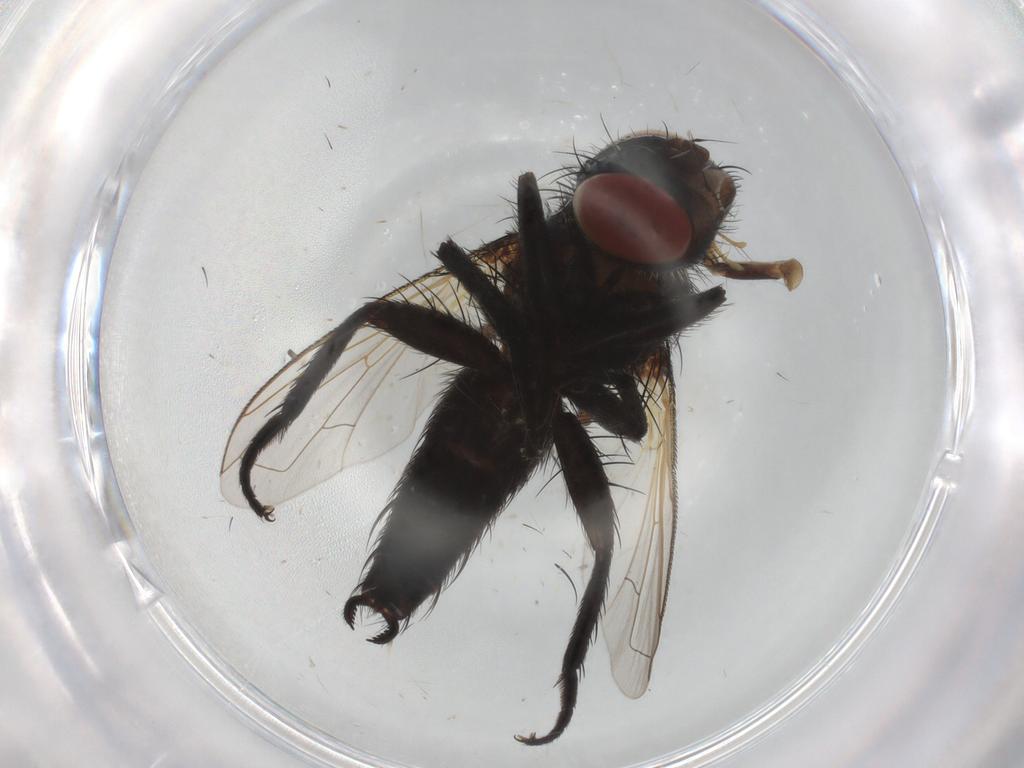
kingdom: Animalia
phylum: Arthropoda
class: Insecta
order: Diptera
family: Tachinidae
